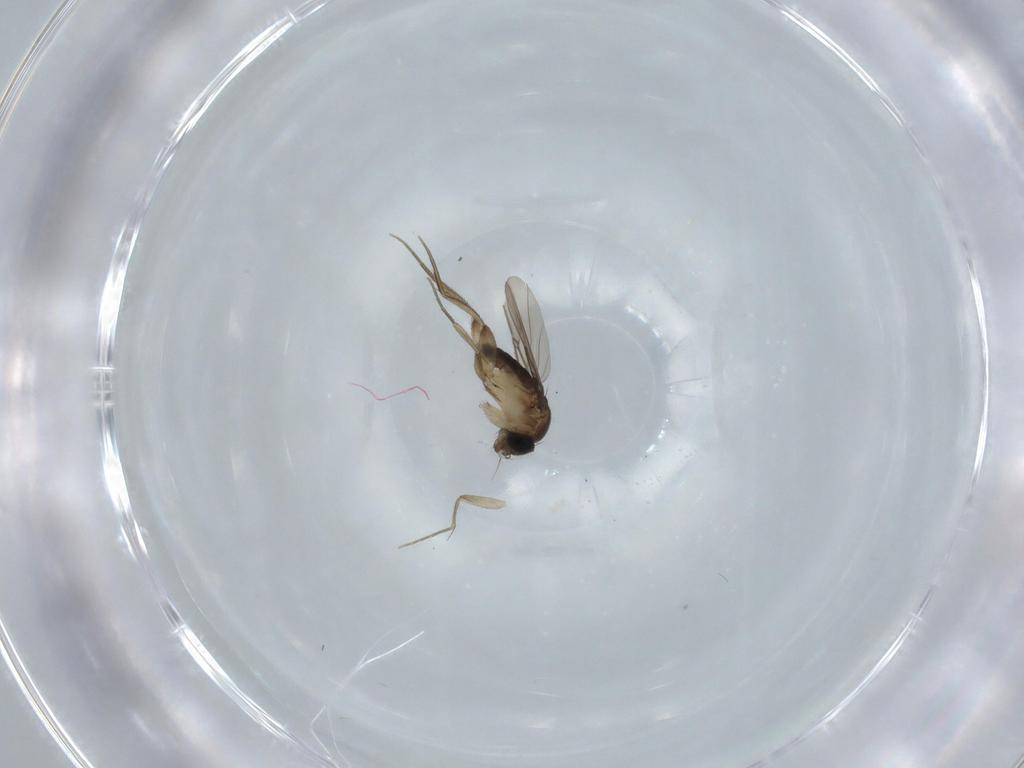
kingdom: Animalia
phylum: Arthropoda
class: Insecta
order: Diptera
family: Phoridae
